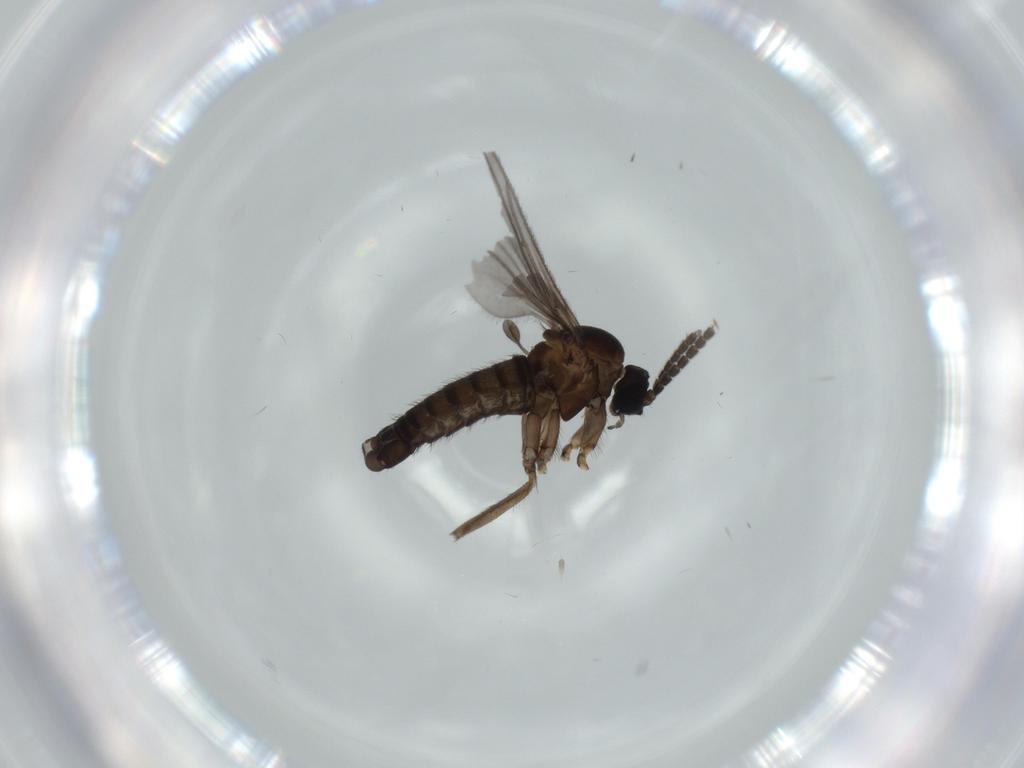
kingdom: Animalia
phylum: Arthropoda
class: Insecta
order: Diptera
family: Sciaridae
